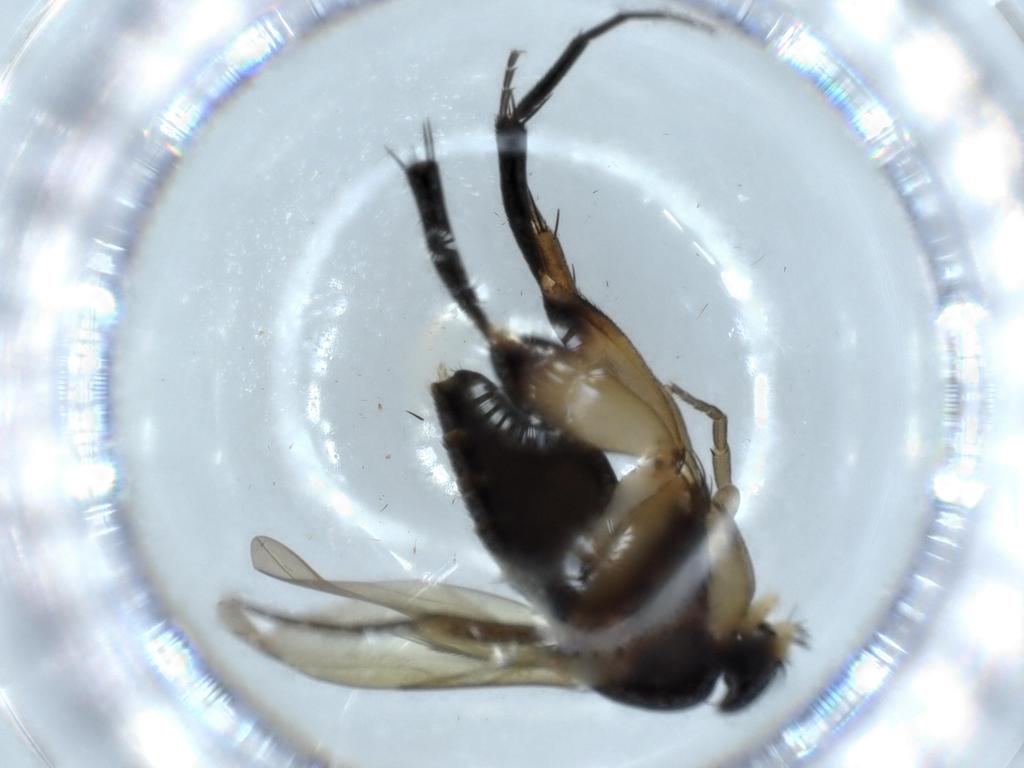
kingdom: Animalia
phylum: Arthropoda
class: Insecta
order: Diptera
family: Phoridae
